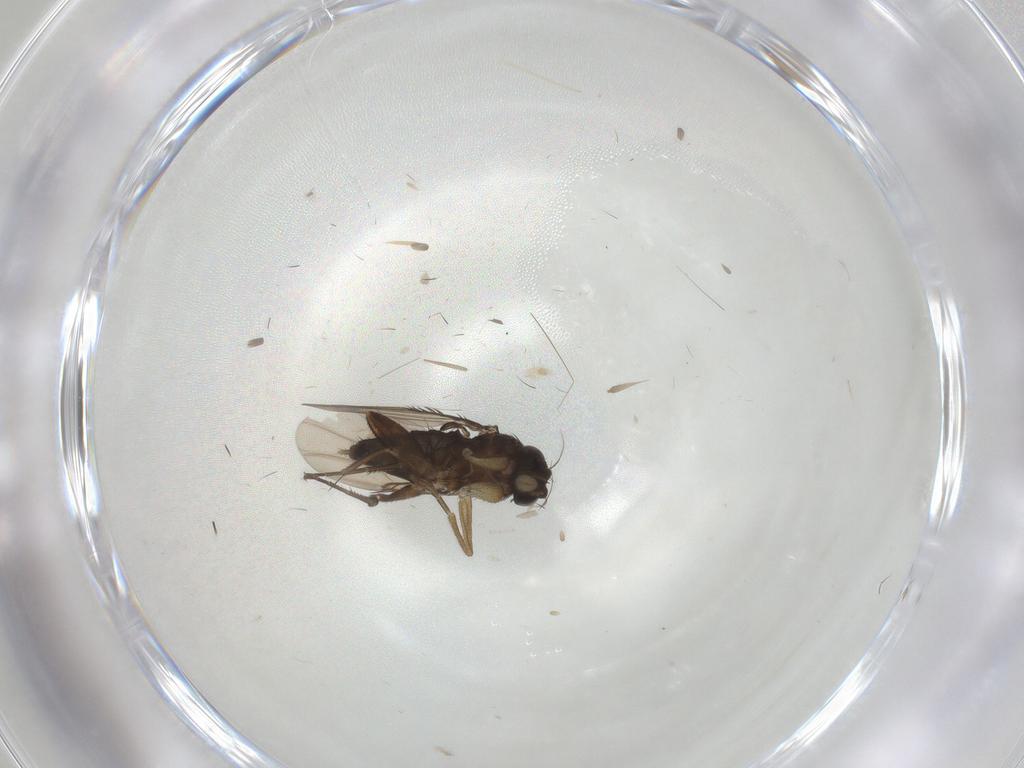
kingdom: Animalia
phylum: Arthropoda
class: Insecta
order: Diptera
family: Phoridae
